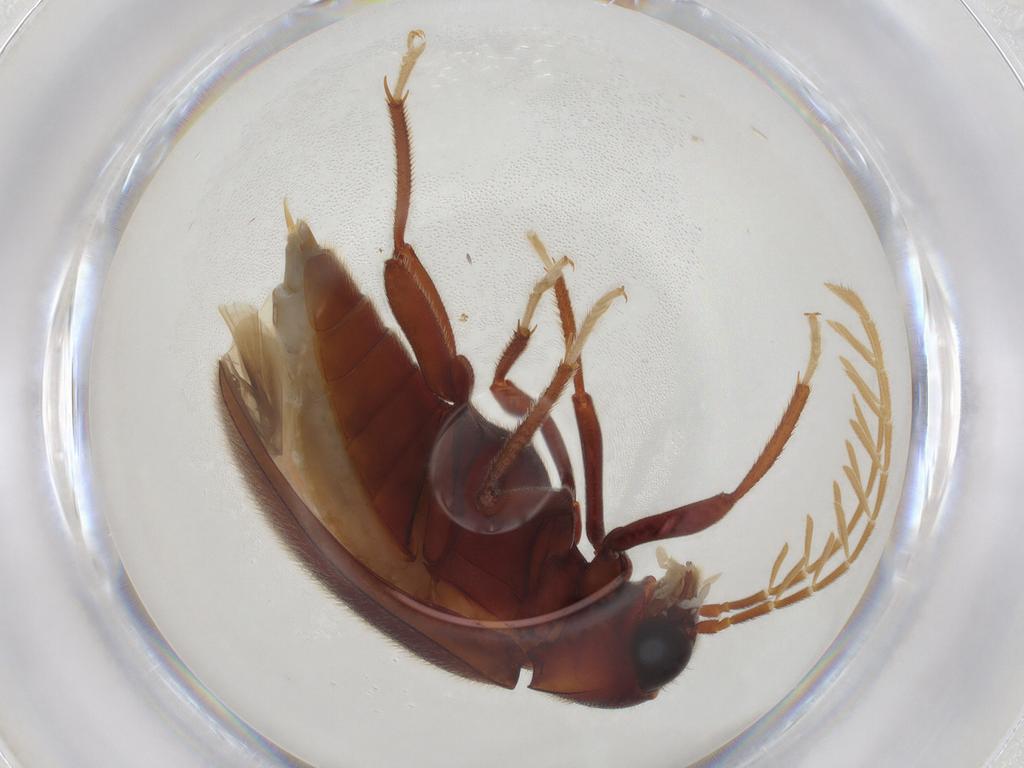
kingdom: Animalia
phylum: Arthropoda
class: Insecta
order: Coleoptera
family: Ptilodactylidae
